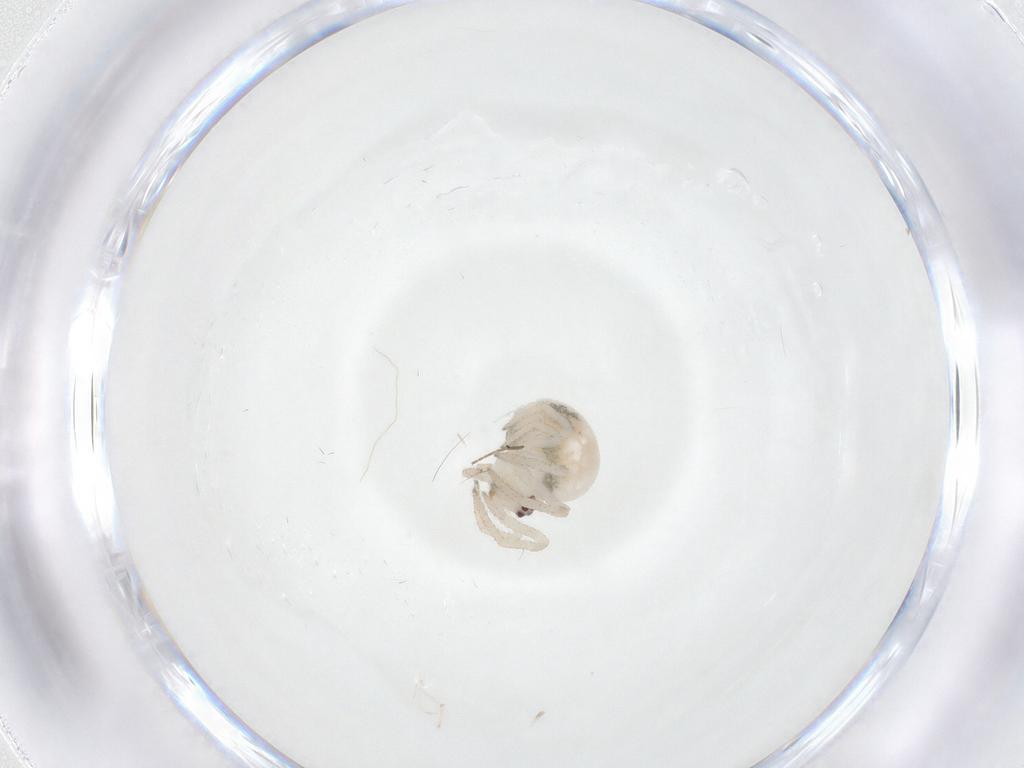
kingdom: Animalia
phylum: Arthropoda
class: Arachnida
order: Araneae
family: Theridiidae
